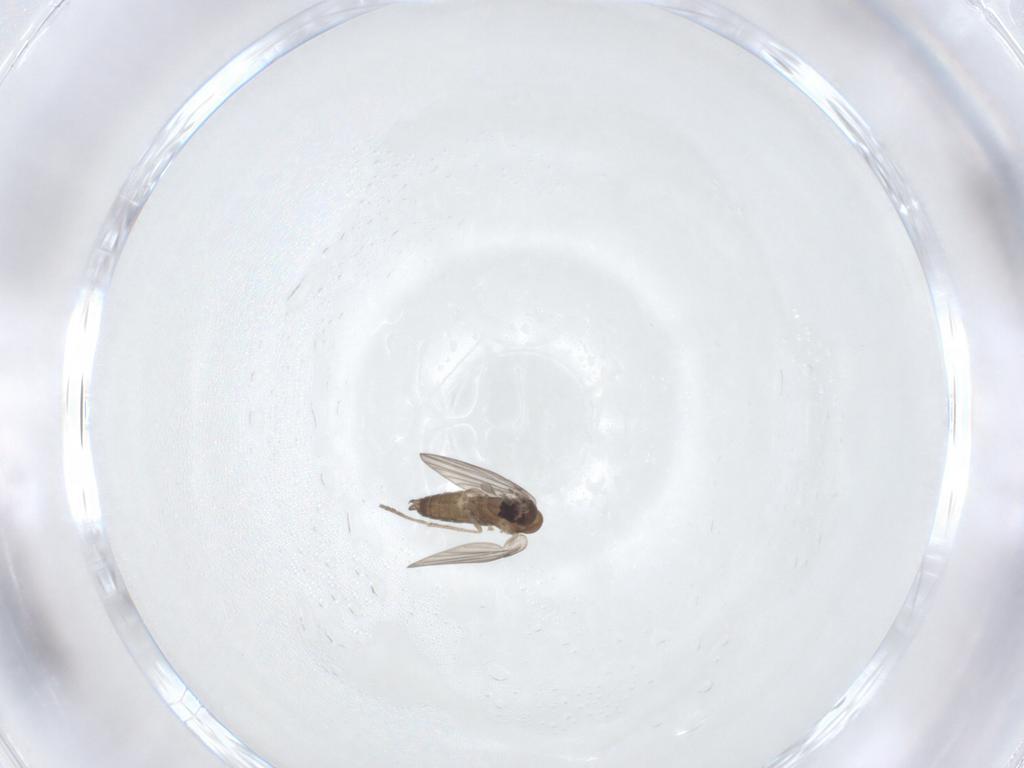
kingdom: Animalia
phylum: Arthropoda
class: Insecta
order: Diptera
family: Psychodidae
